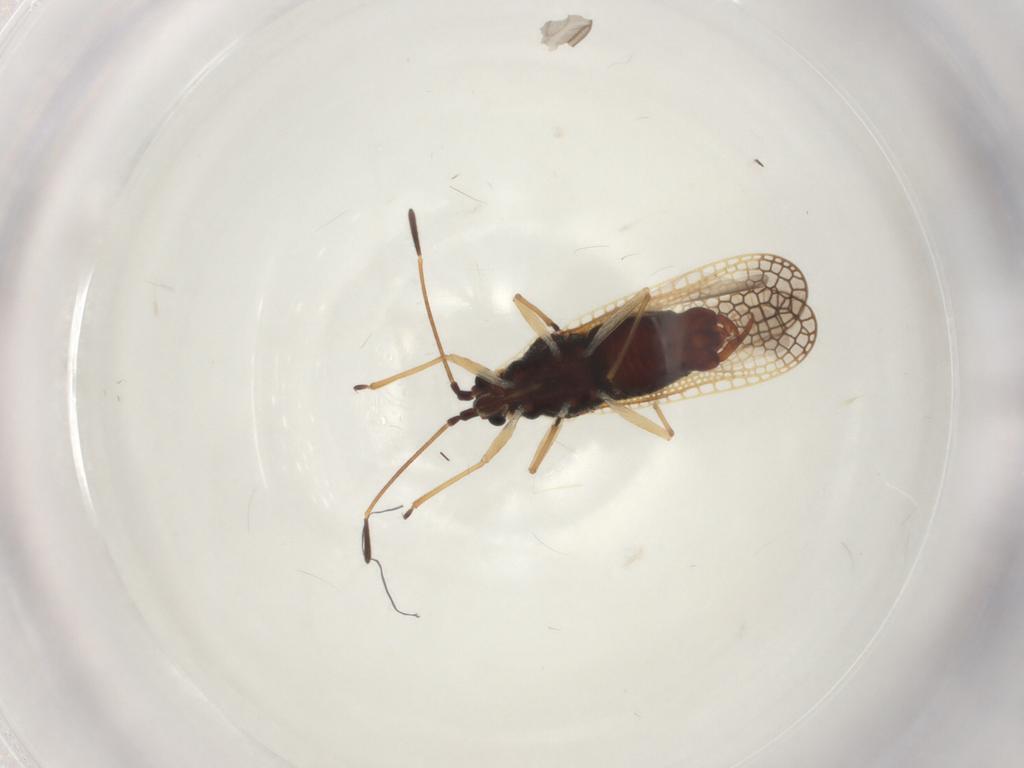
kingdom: Animalia
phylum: Arthropoda
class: Insecta
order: Hemiptera
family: Tingidae
